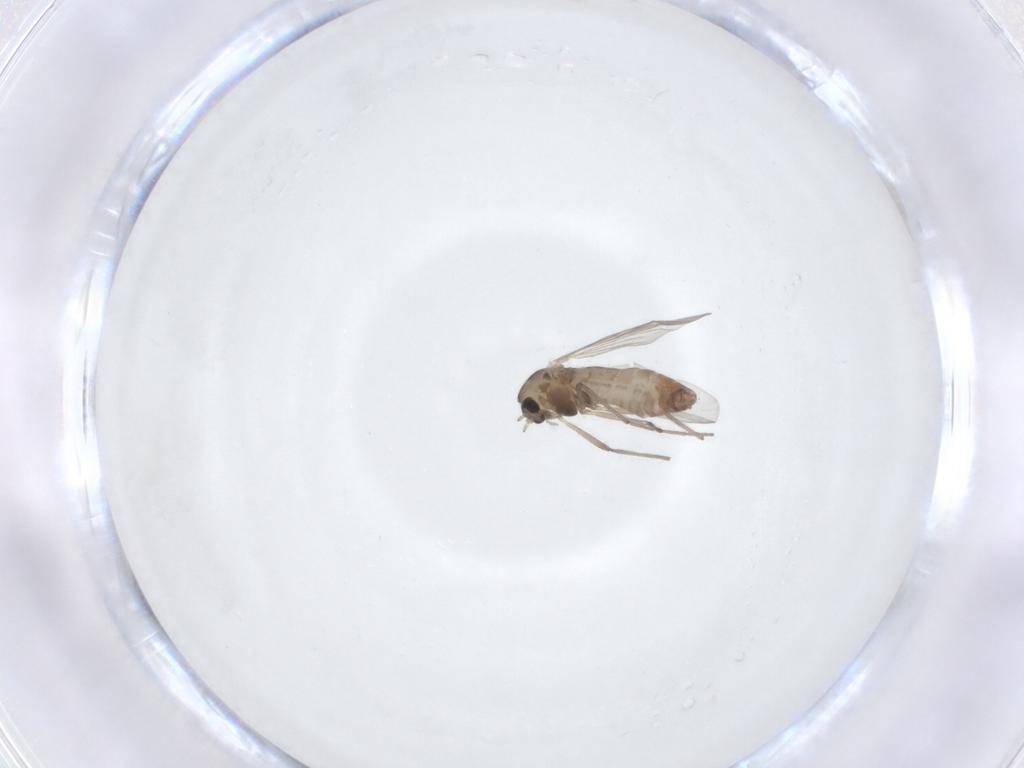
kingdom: Animalia
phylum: Arthropoda
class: Insecta
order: Diptera
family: Chironomidae
